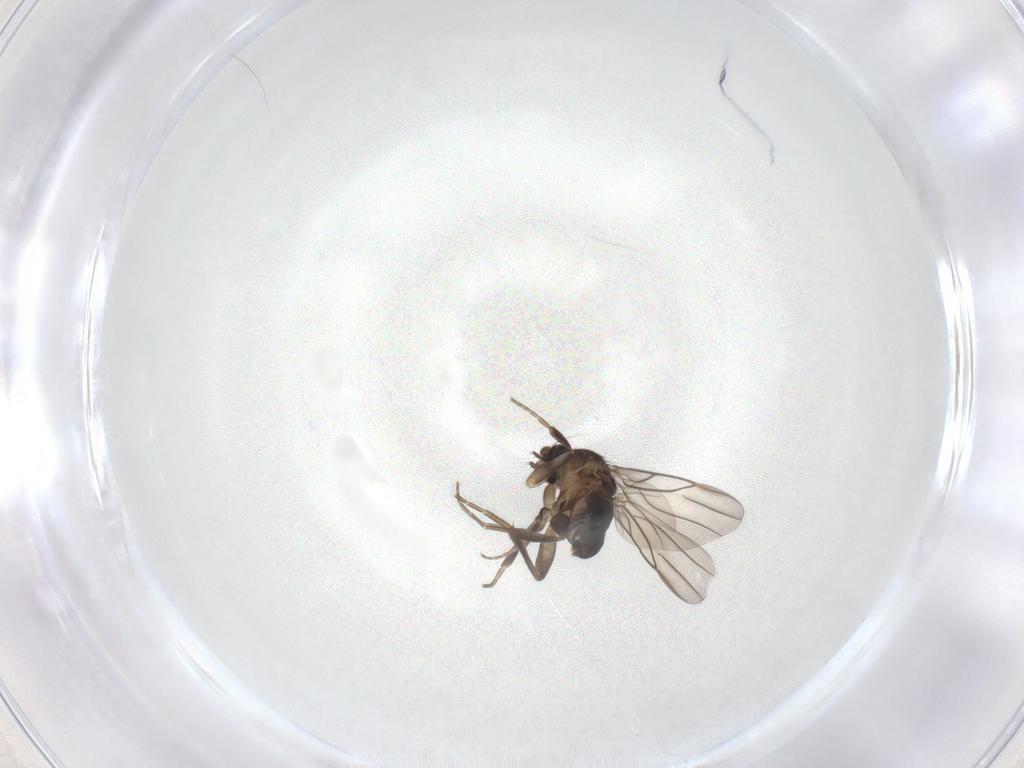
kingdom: Animalia
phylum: Arthropoda
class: Insecta
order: Diptera
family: Phoridae
